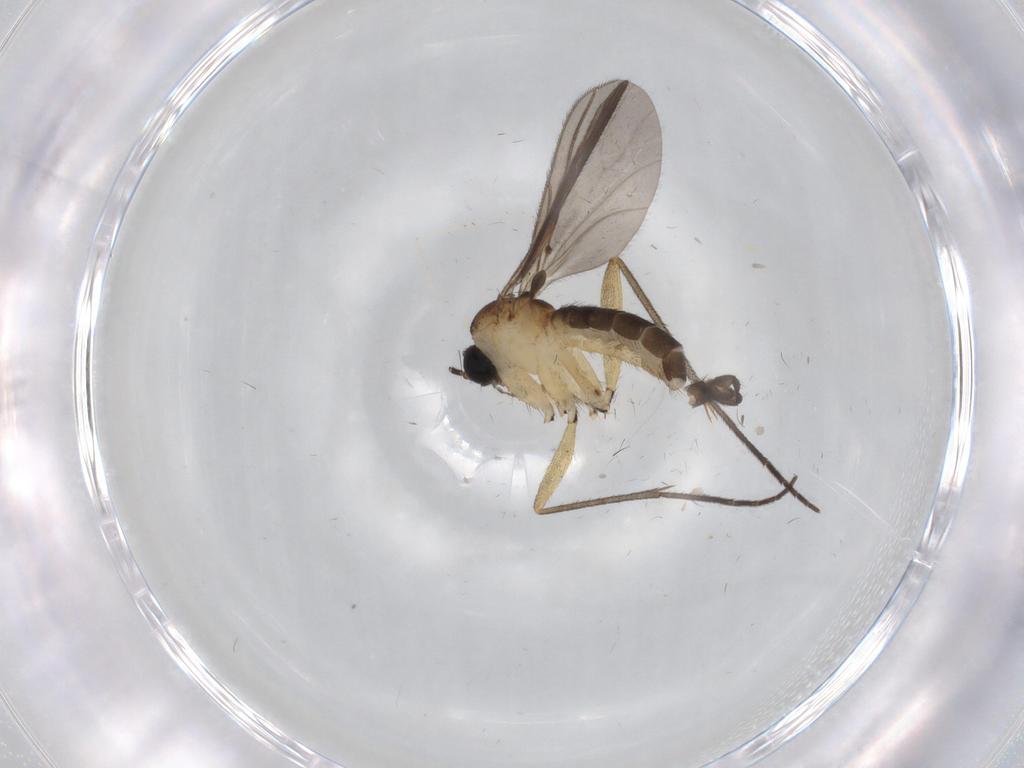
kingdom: Animalia
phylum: Arthropoda
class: Insecta
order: Diptera
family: Sciaridae
